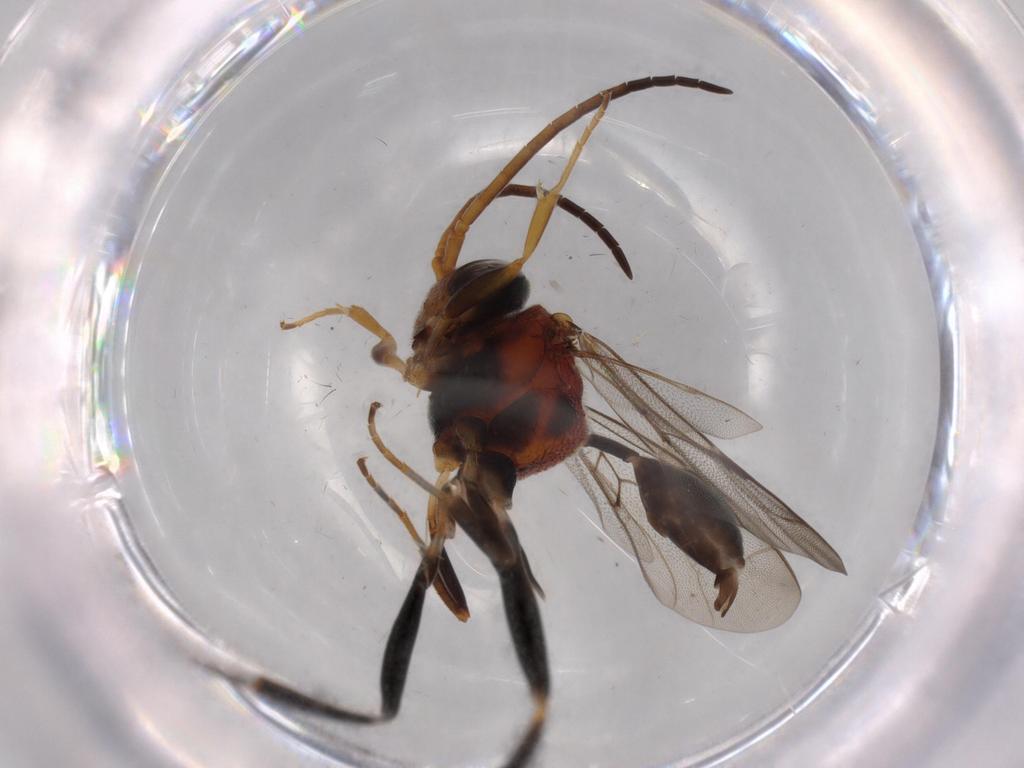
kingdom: Animalia
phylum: Arthropoda
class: Insecta
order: Hymenoptera
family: Evaniidae
